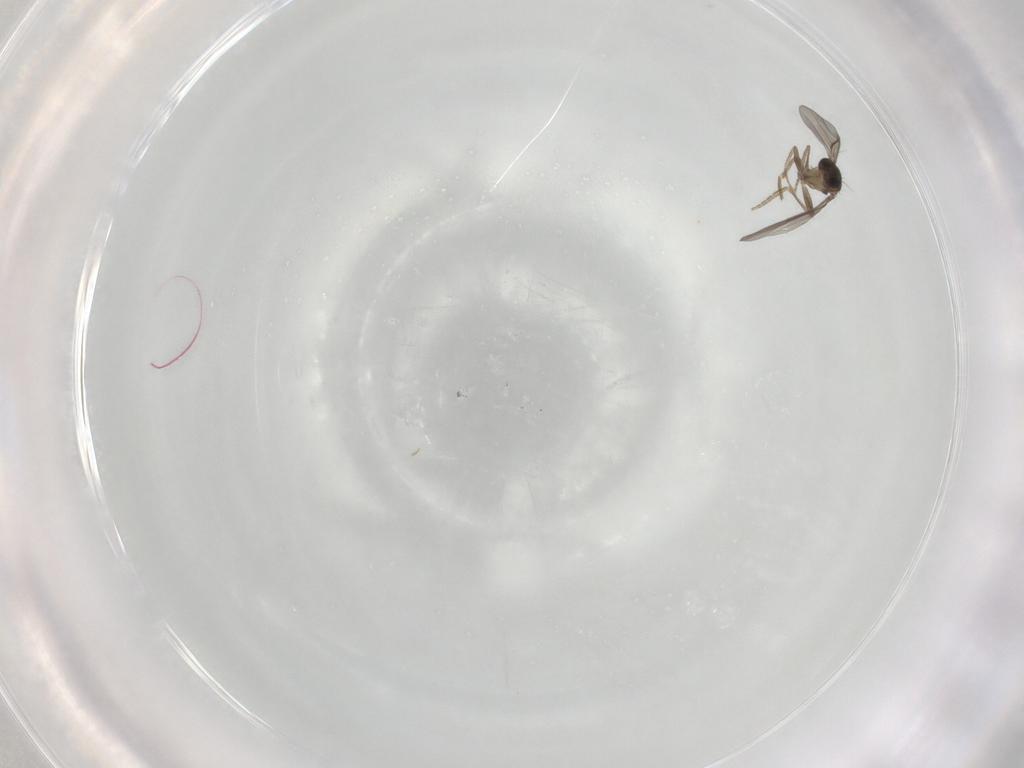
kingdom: Animalia
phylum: Arthropoda
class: Insecta
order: Diptera
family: Phoridae
